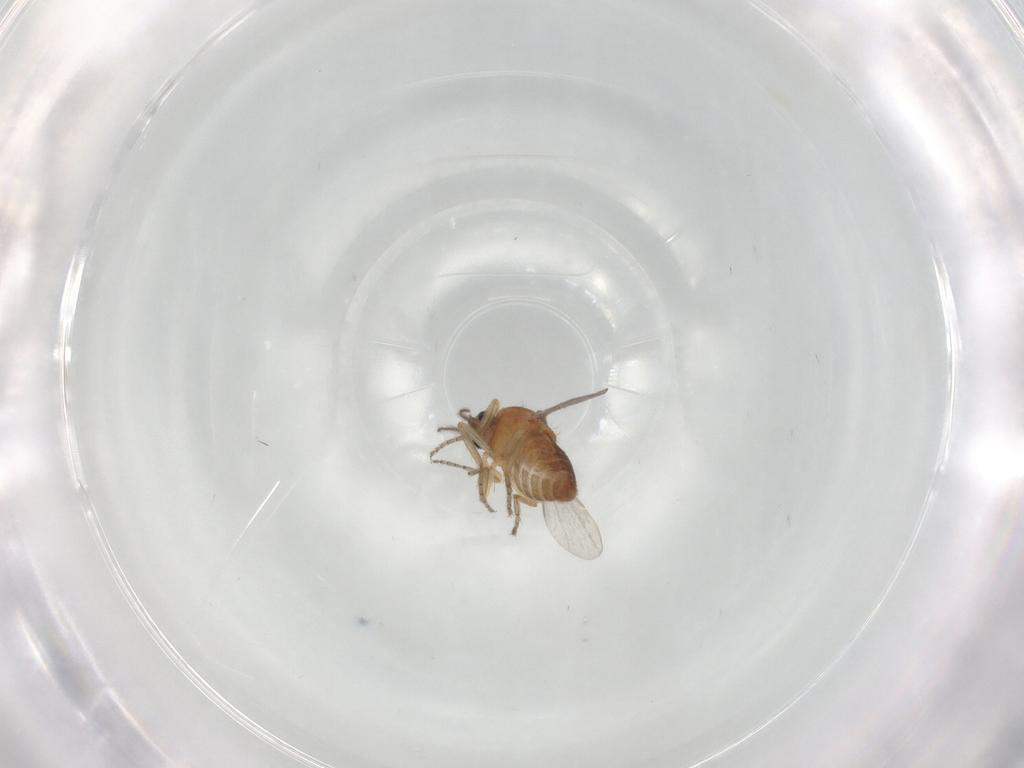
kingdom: Animalia
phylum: Arthropoda
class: Insecta
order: Diptera
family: Ceratopogonidae
